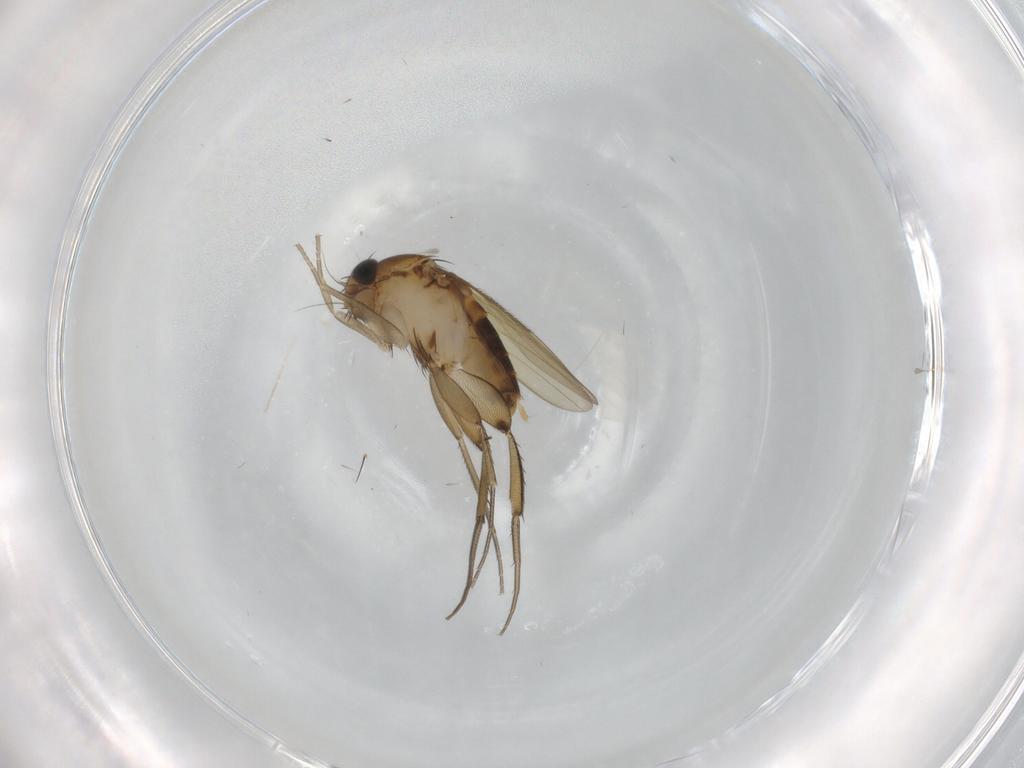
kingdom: Animalia
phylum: Arthropoda
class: Insecta
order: Diptera
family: Phoridae
